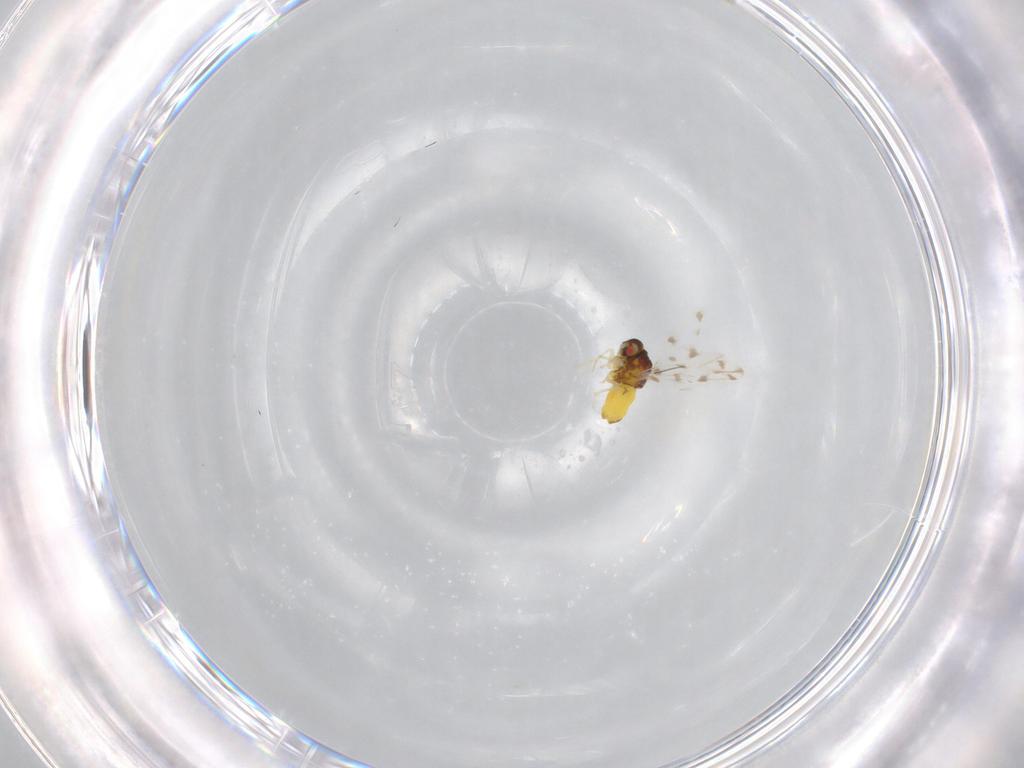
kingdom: Animalia
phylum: Arthropoda
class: Insecta
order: Hemiptera
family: Aleyrodidae
